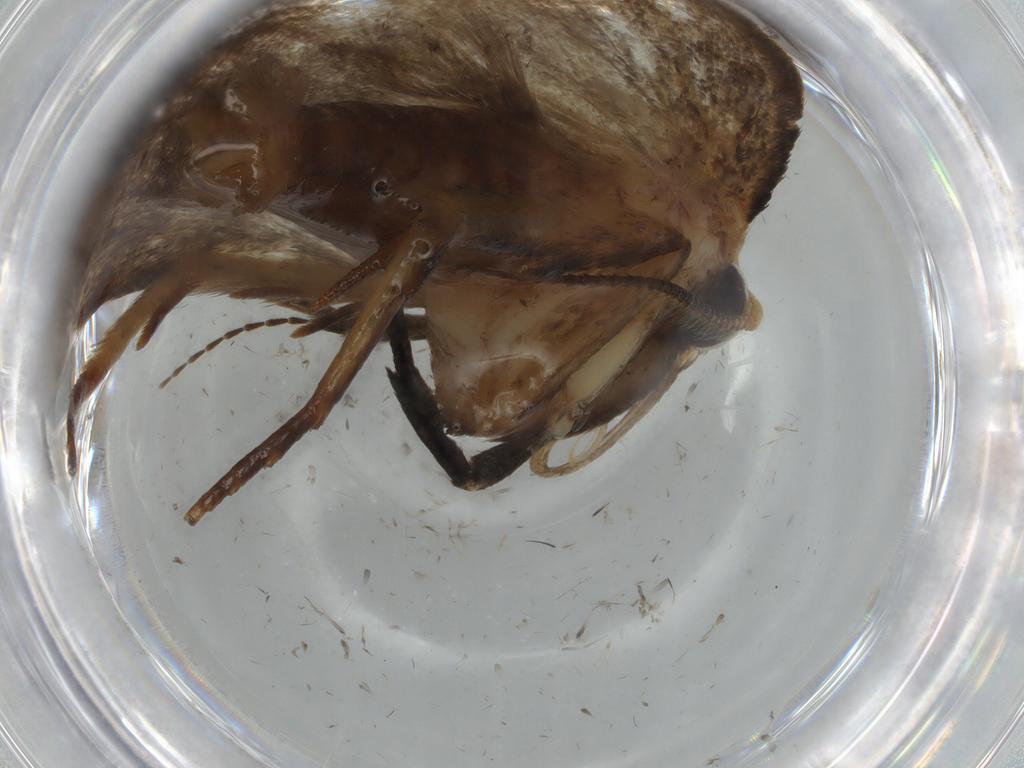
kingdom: Animalia
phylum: Arthropoda
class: Insecta
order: Lepidoptera
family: Oecophoridae
